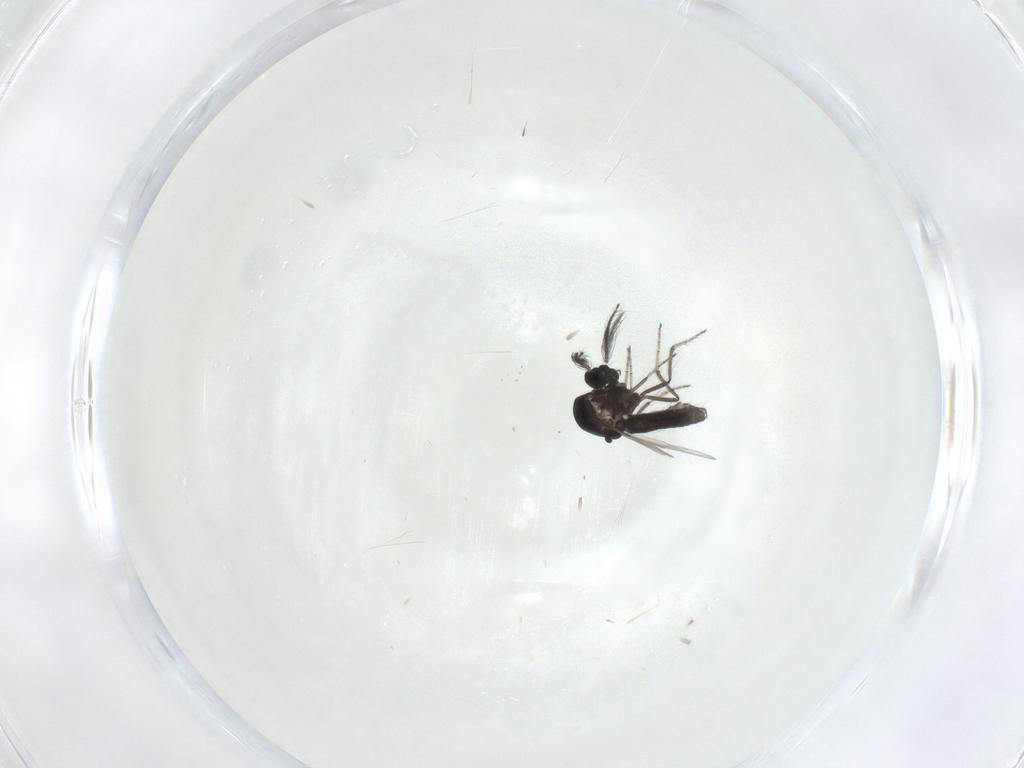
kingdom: Animalia
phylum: Arthropoda
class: Insecta
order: Diptera
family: Ceratopogonidae
